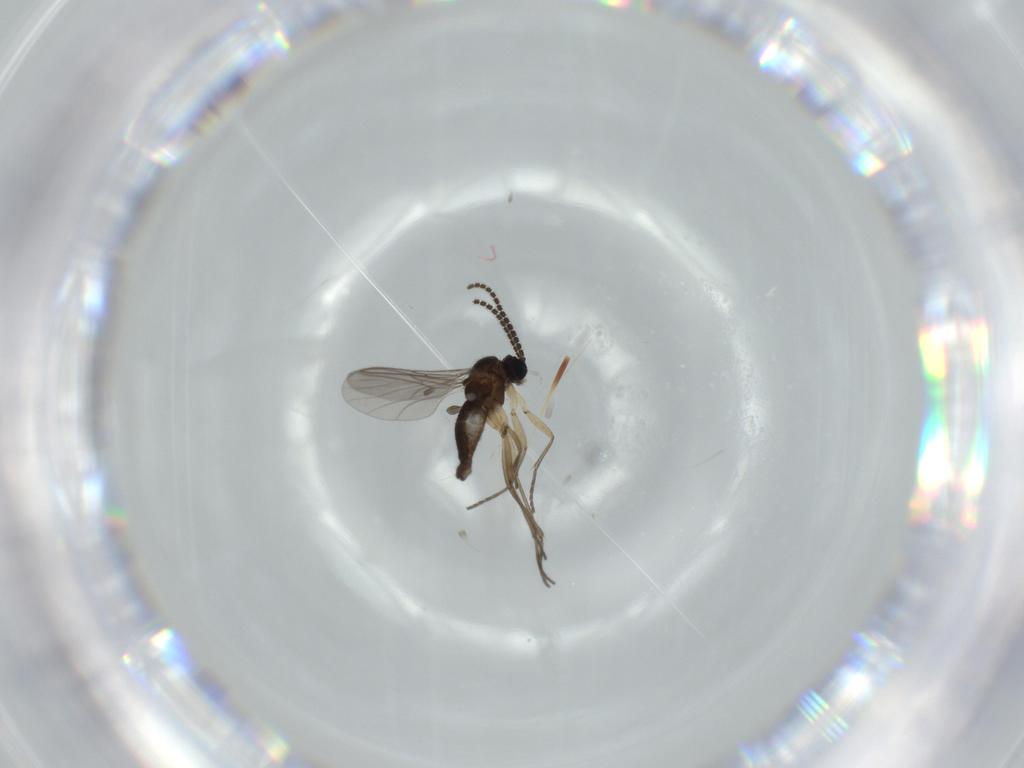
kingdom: Animalia
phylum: Arthropoda
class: Insecta
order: Diptera
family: Sciaridae
